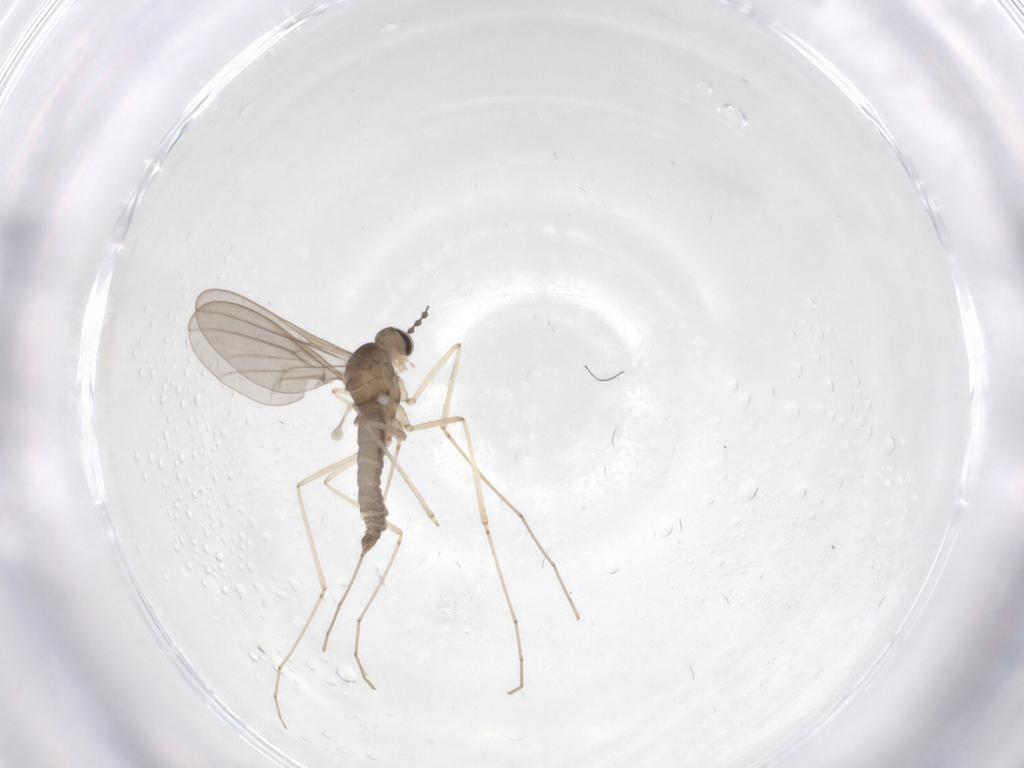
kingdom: Animalia
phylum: Arthropoda
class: Insecta
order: Diptera
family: Cecidomyiidae
